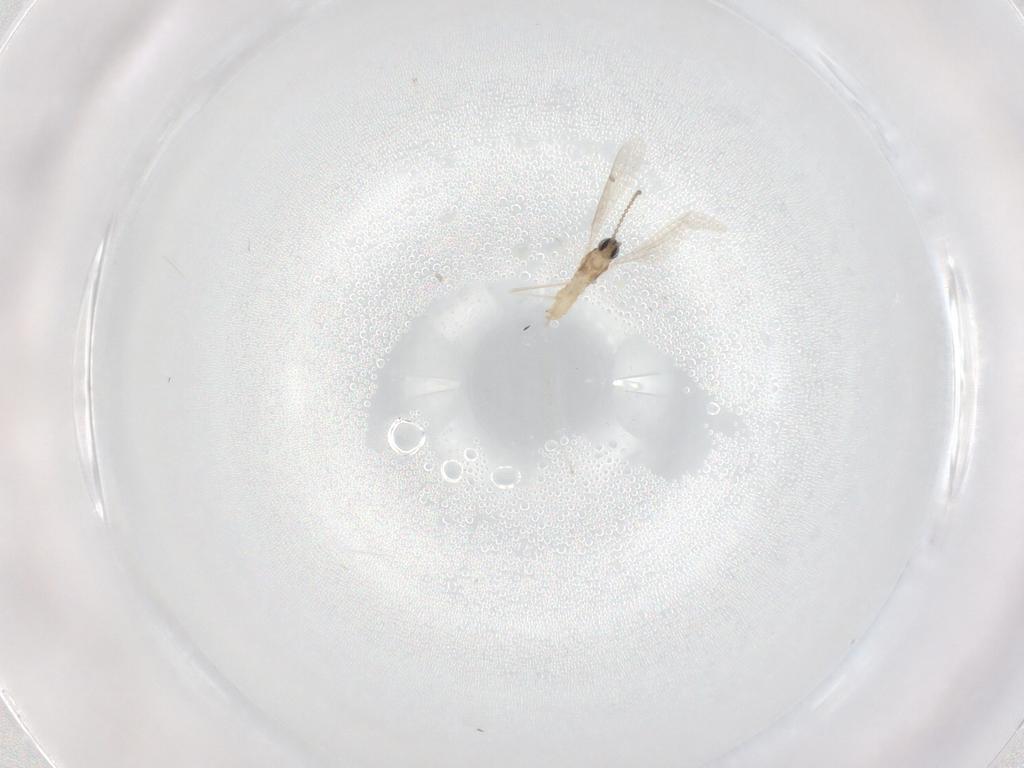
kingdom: Animalia
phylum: Arthropoda
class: Insecta
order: Diptera
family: Cecidomyiidae
